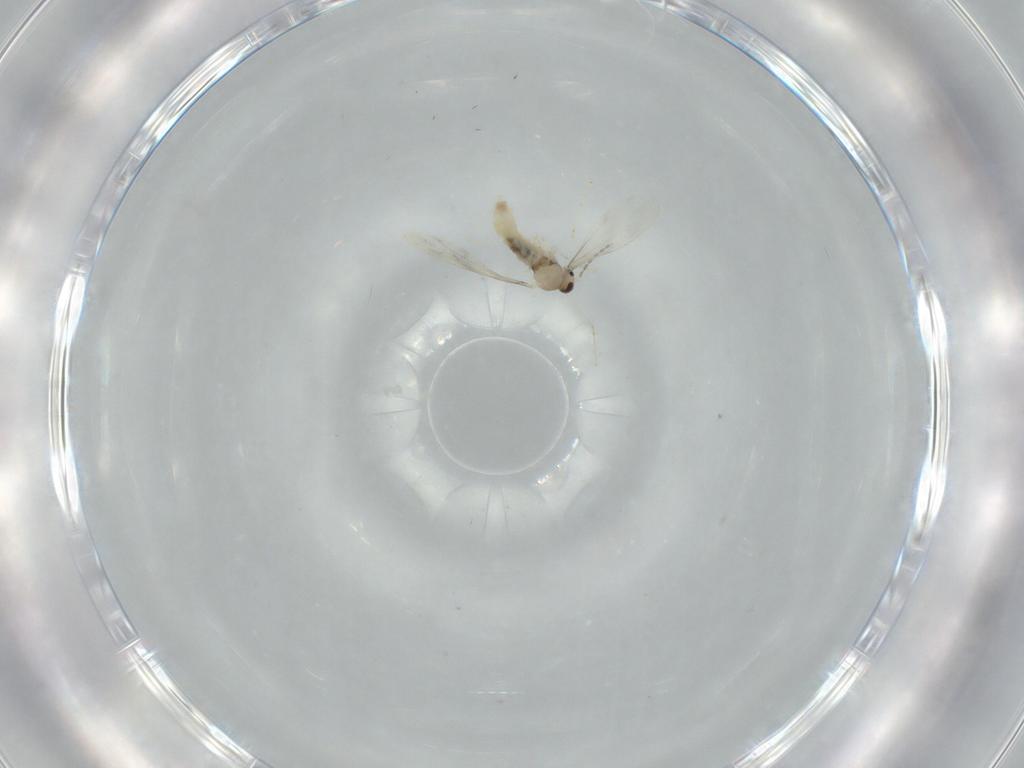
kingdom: Animalia
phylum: Arthropoda
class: Insecta
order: Diptera
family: Cecidomyiidae
